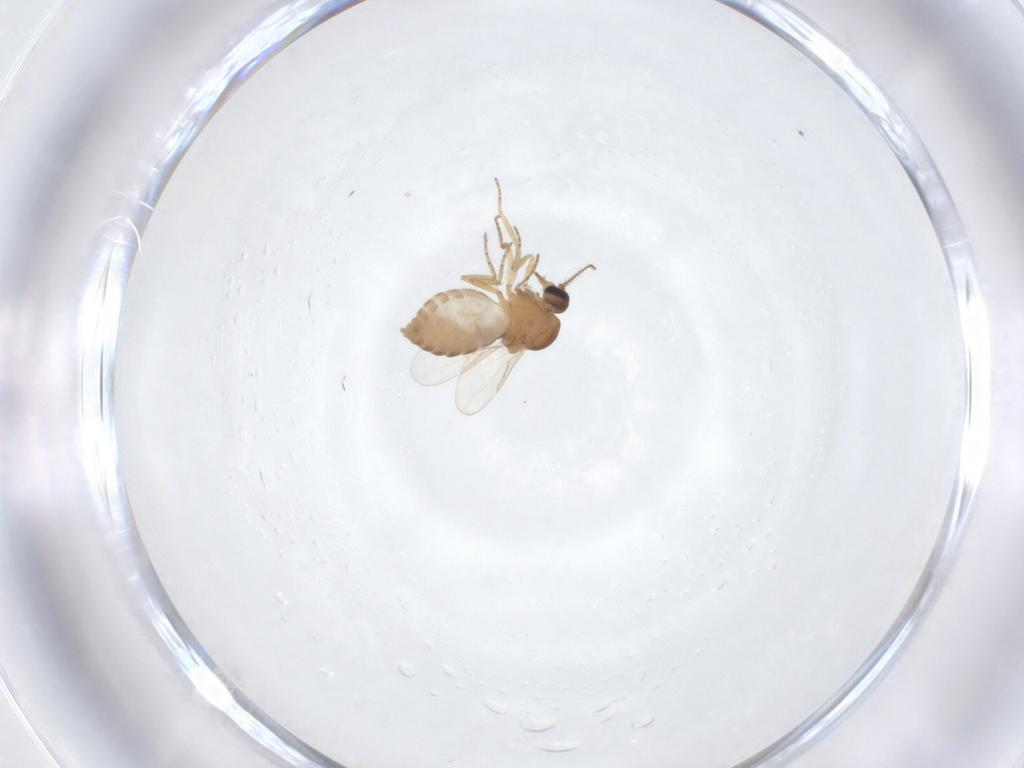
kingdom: Animalia
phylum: Arthropoda
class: Insecta
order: Diptera
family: Ceratopogonidae
